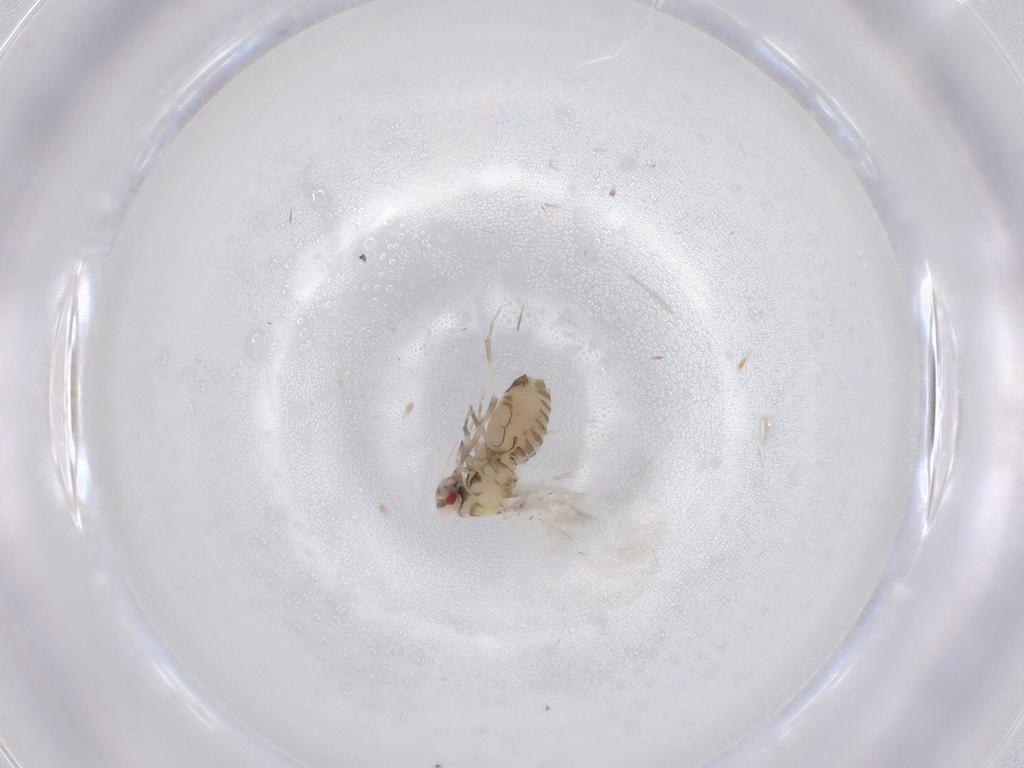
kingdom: Animalia
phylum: Arthropoda
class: Insecta
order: Hemiptera
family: Aleyrodidae
